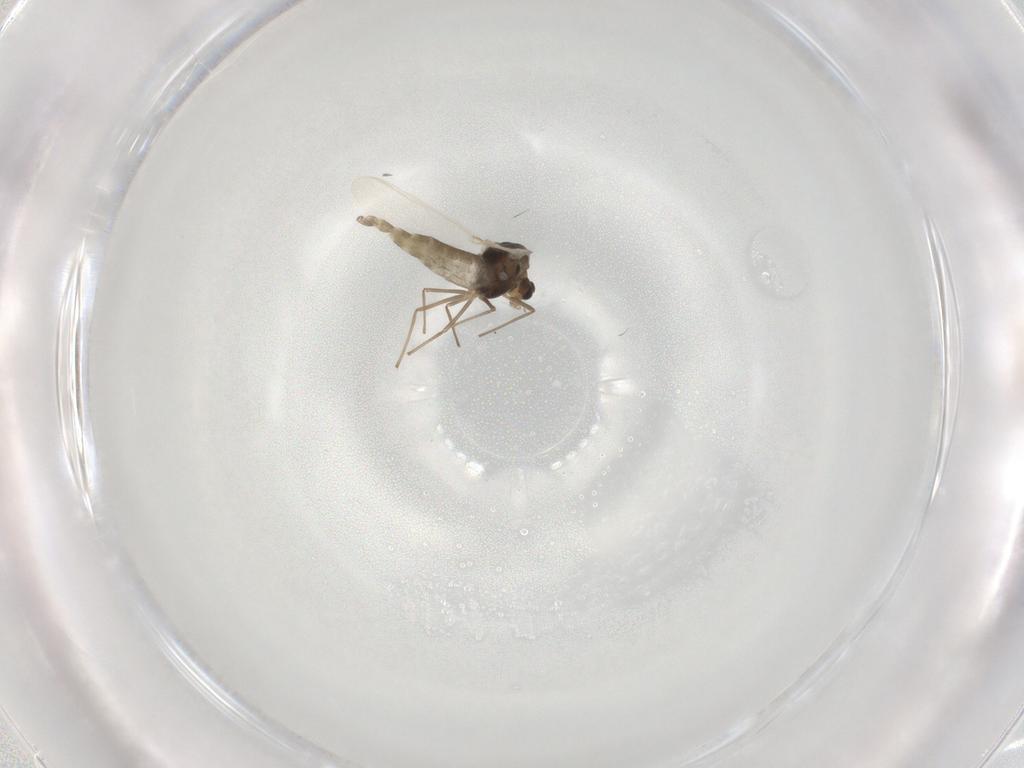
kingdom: Animalia
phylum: Arthropoda
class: Insecta
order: Diptera
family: Chironomidae
